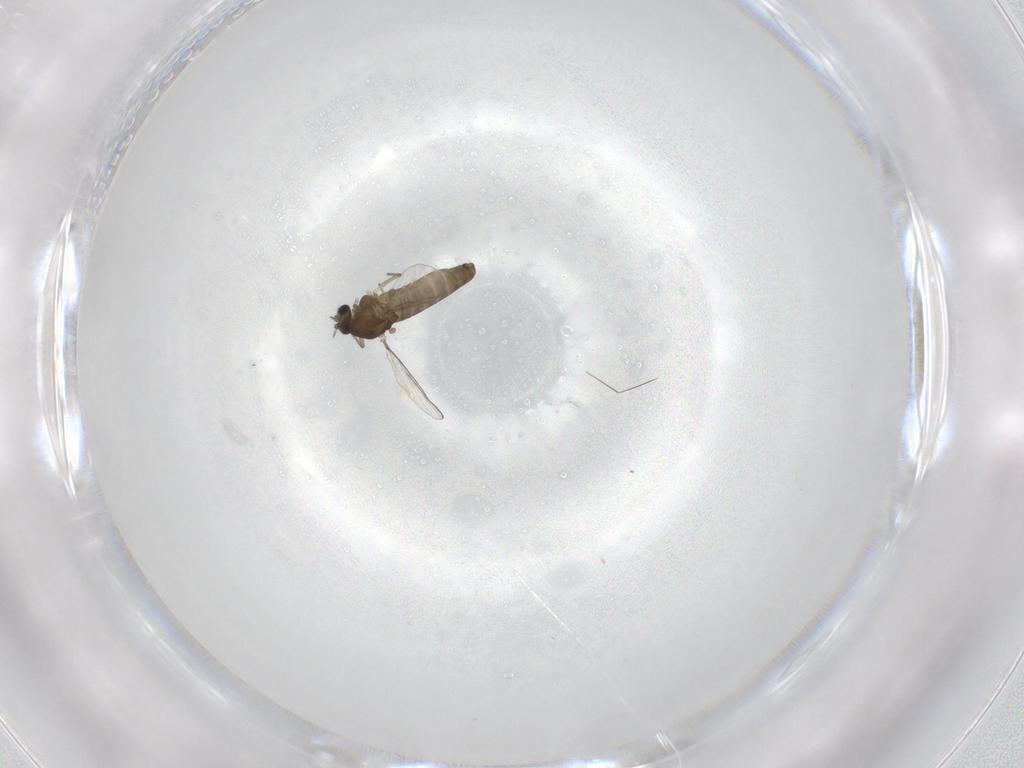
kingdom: Animalia
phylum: Arthropoda
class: Insecta
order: Diptera
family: Chironomidae
